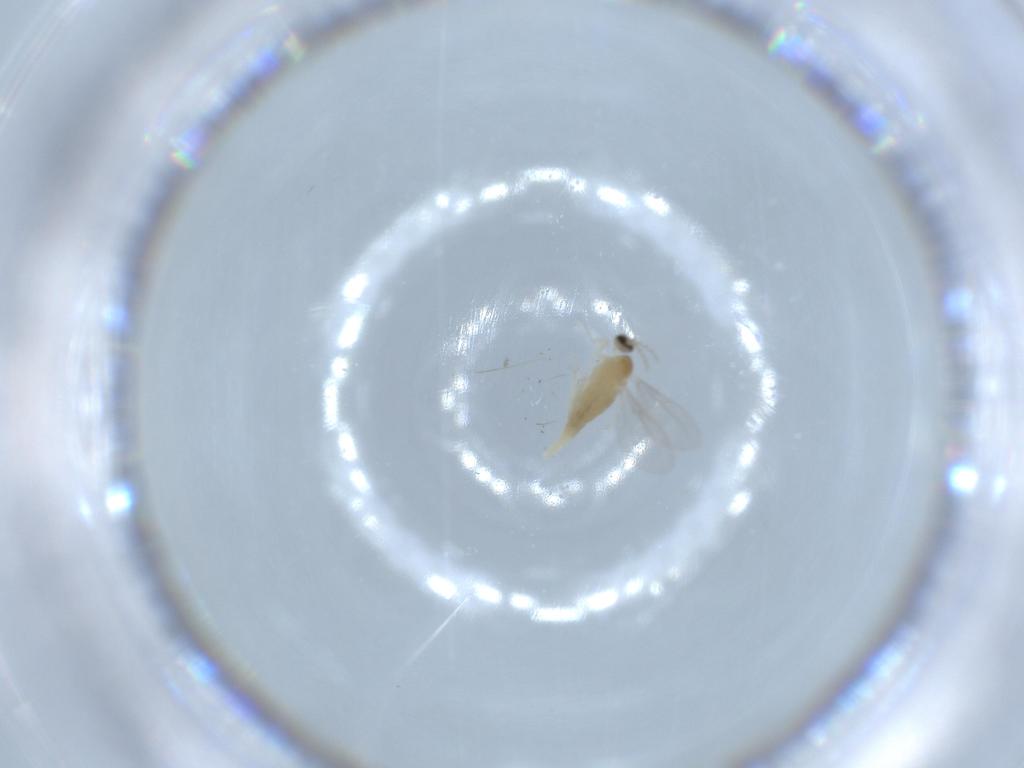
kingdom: Animalia
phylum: Arthropoda
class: Insecta
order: Diptera
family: Cecidomyiidae
